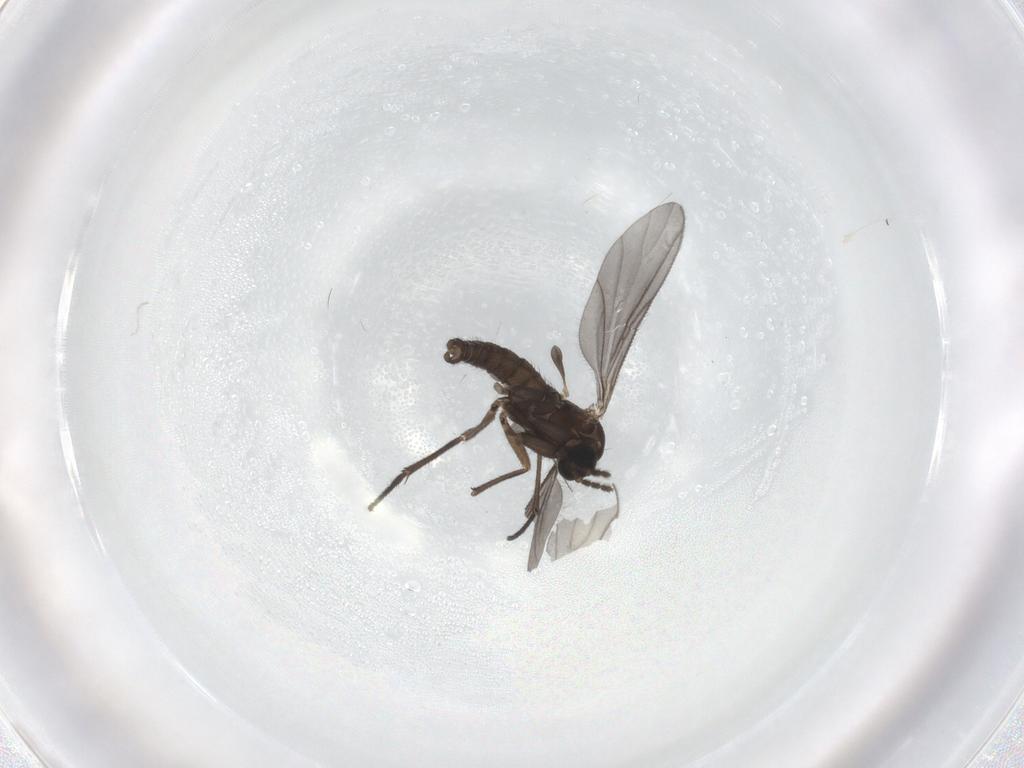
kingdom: Animalia
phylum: Arthropoda
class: Insecta
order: Diptera
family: Sciaridae
